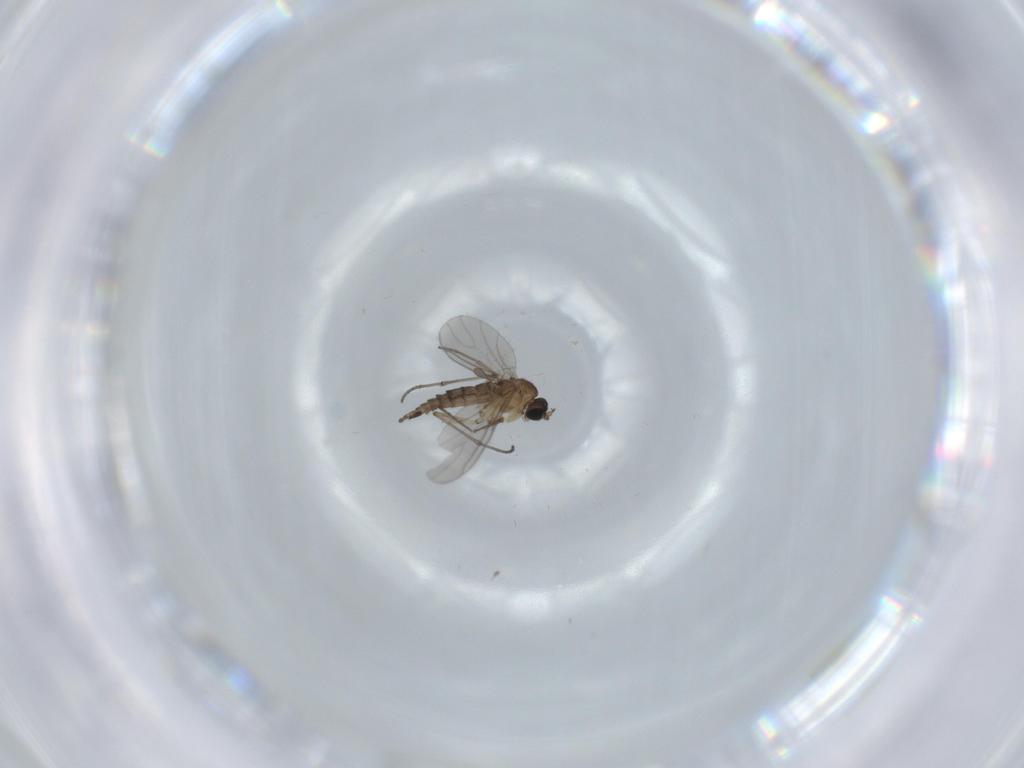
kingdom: Animalia
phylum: Arthropoda
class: Insecta
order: Diptera
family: Sciaridae
